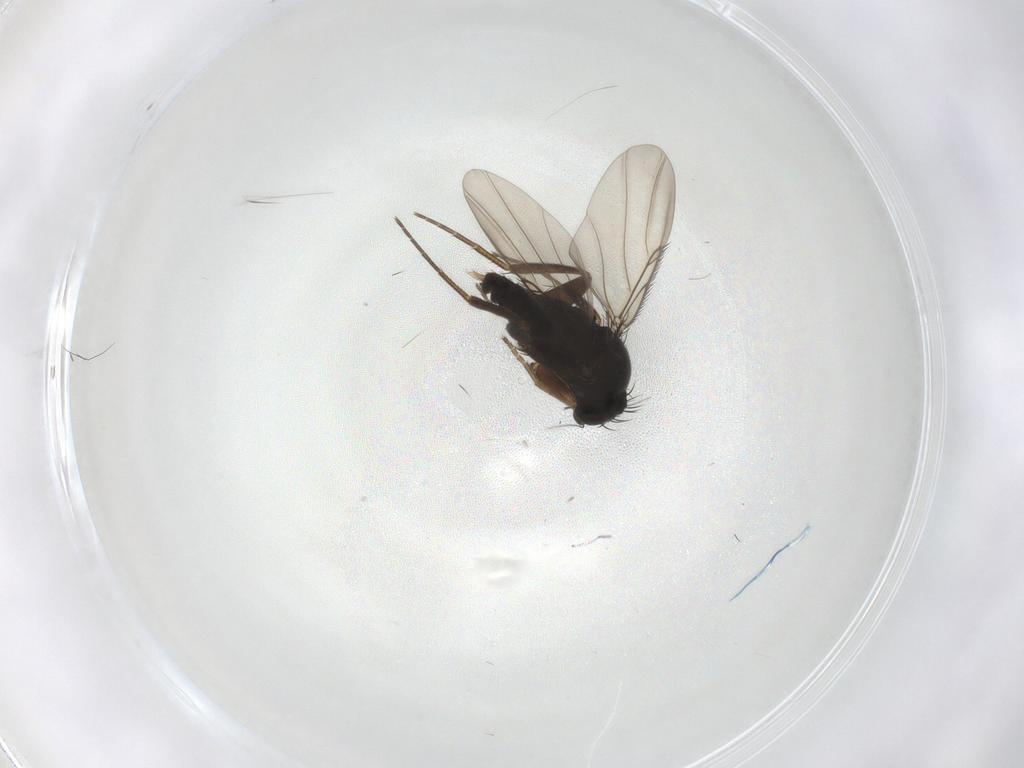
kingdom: Animalia
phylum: Arthropoda
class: Insecta
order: Diptera
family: Phoridae
